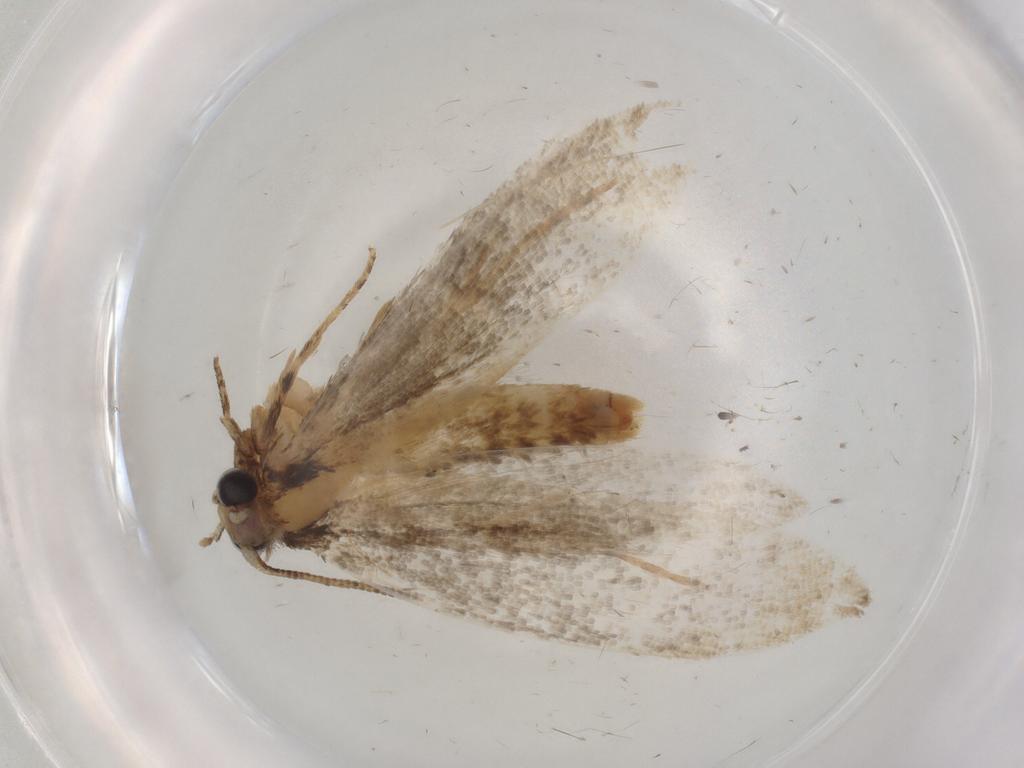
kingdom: Animalia
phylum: Arthropoda
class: Insecta
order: Lepidoptera
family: Tineidae
